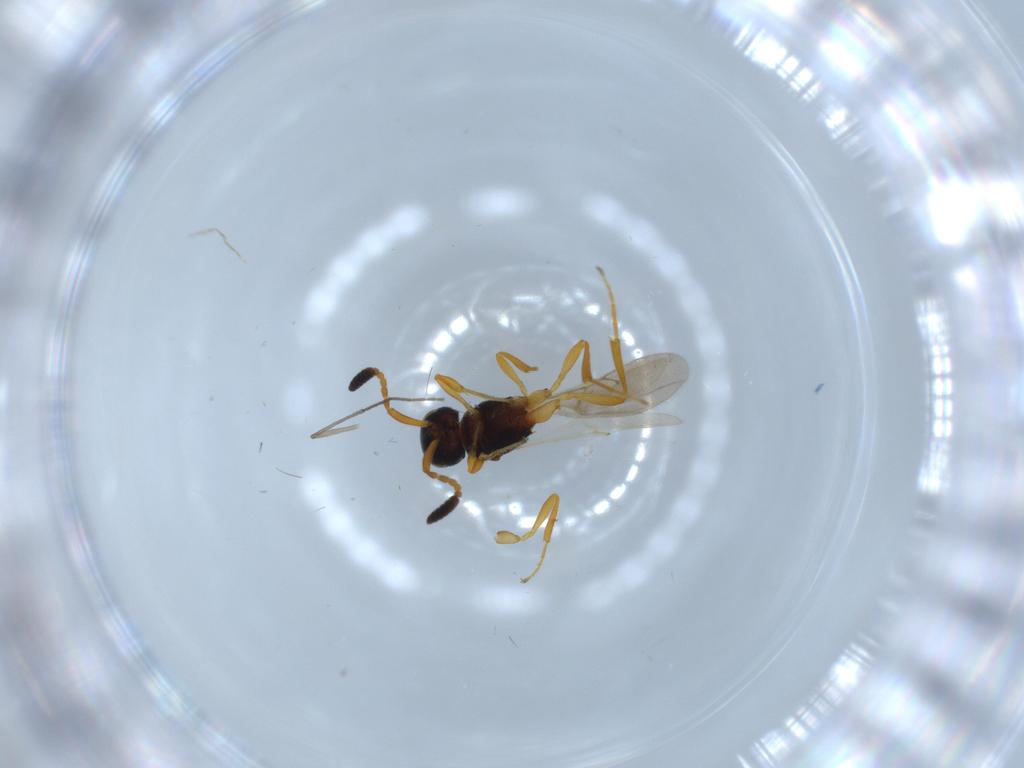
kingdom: Animalia
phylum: Arthropoda
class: Insecta
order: Hymenoptera
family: Scelionidae
